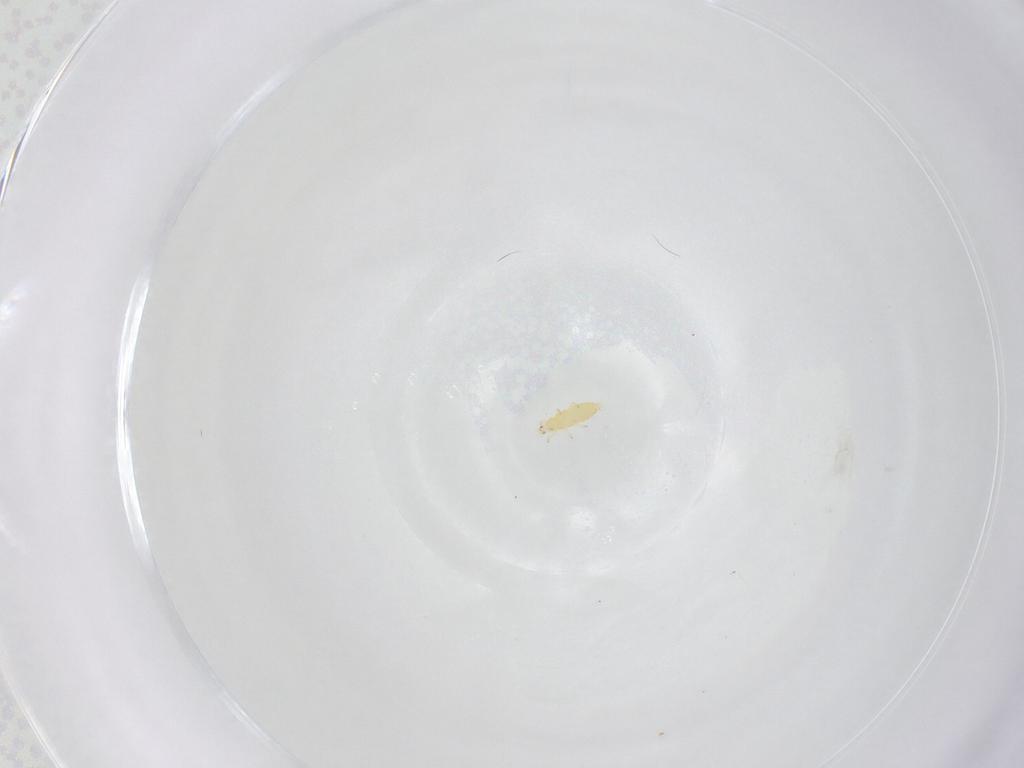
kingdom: Animalia
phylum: Arthropoda
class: Insecta
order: Thysanoptera
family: Thripidae
